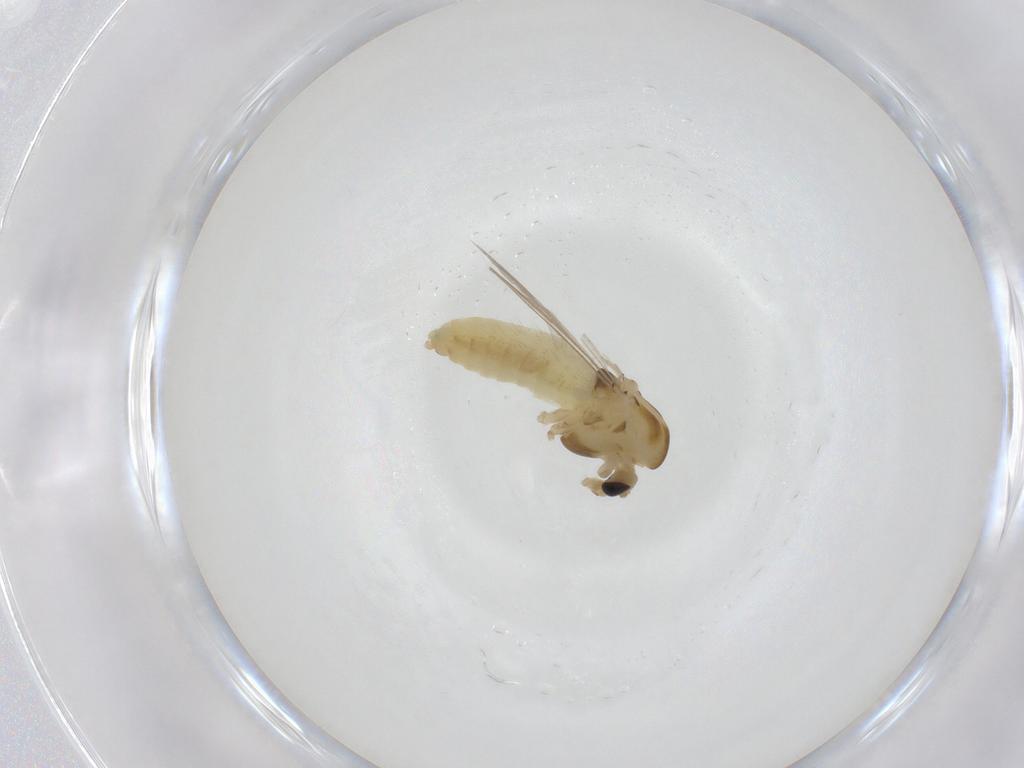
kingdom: Animalia
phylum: Arthropoda
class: Insecta
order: Diptera
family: Chironomidae
